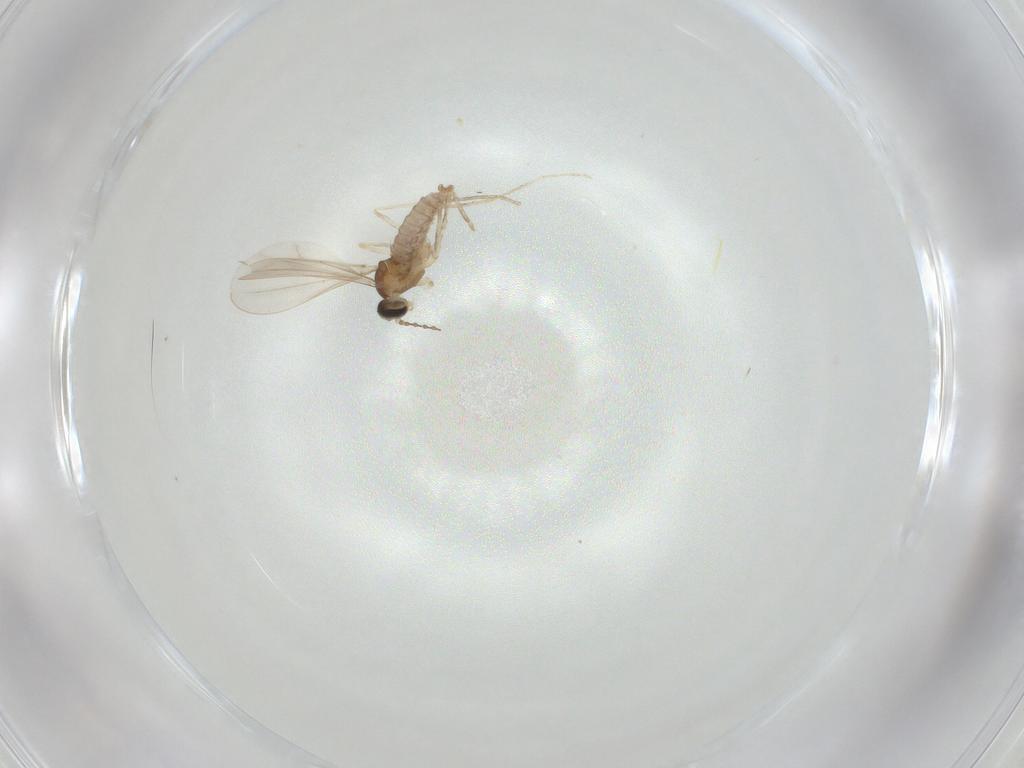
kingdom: Animalia
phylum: Arthropoda
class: Insecta
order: Diptera
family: Cecidomyiidae
